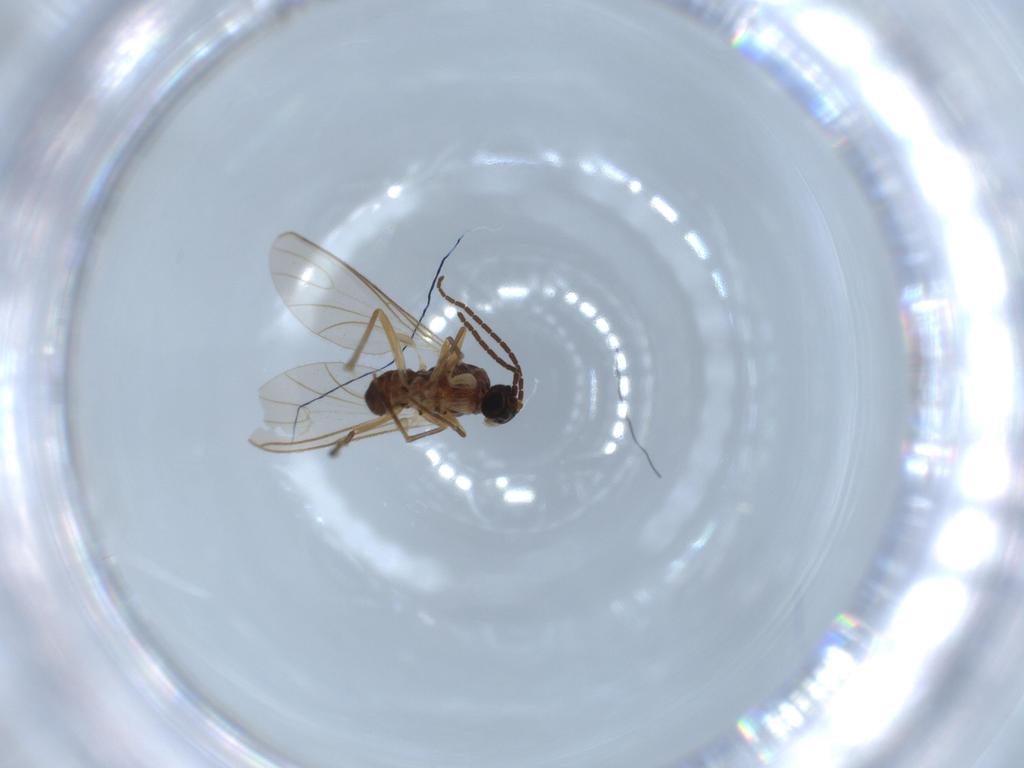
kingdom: Animalia
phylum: Arthropoda
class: Insecta
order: Diptera
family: Sciaridae
